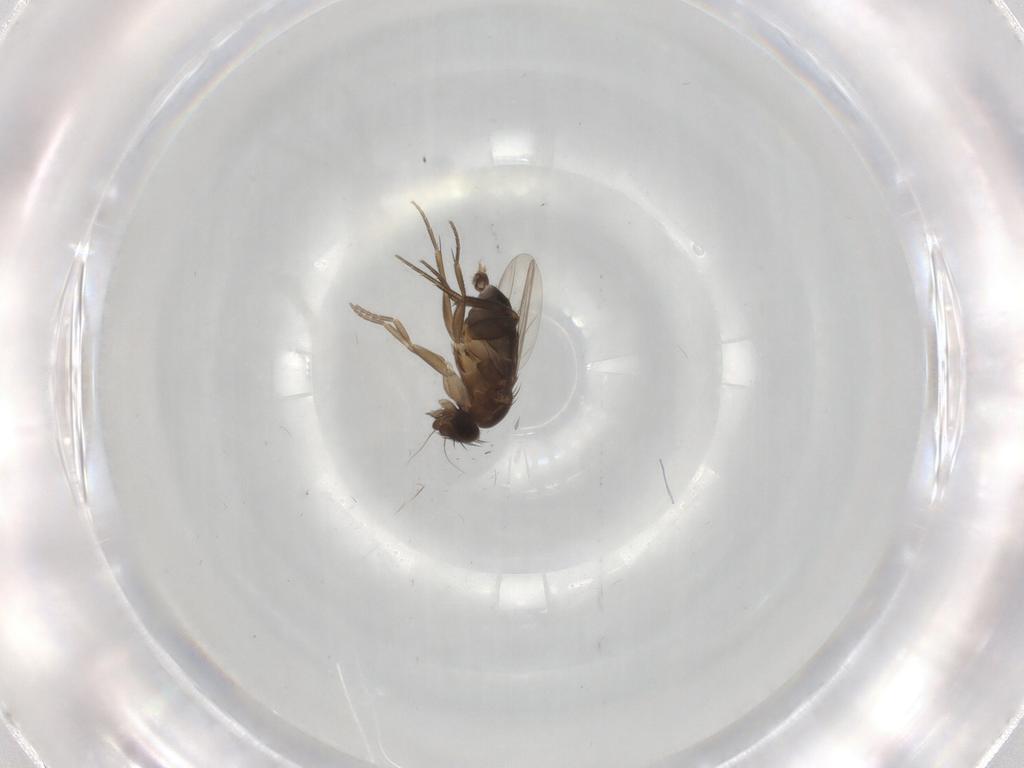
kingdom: Animalia
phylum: Arthropoda
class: Insecta
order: Diptera
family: Phoridae
